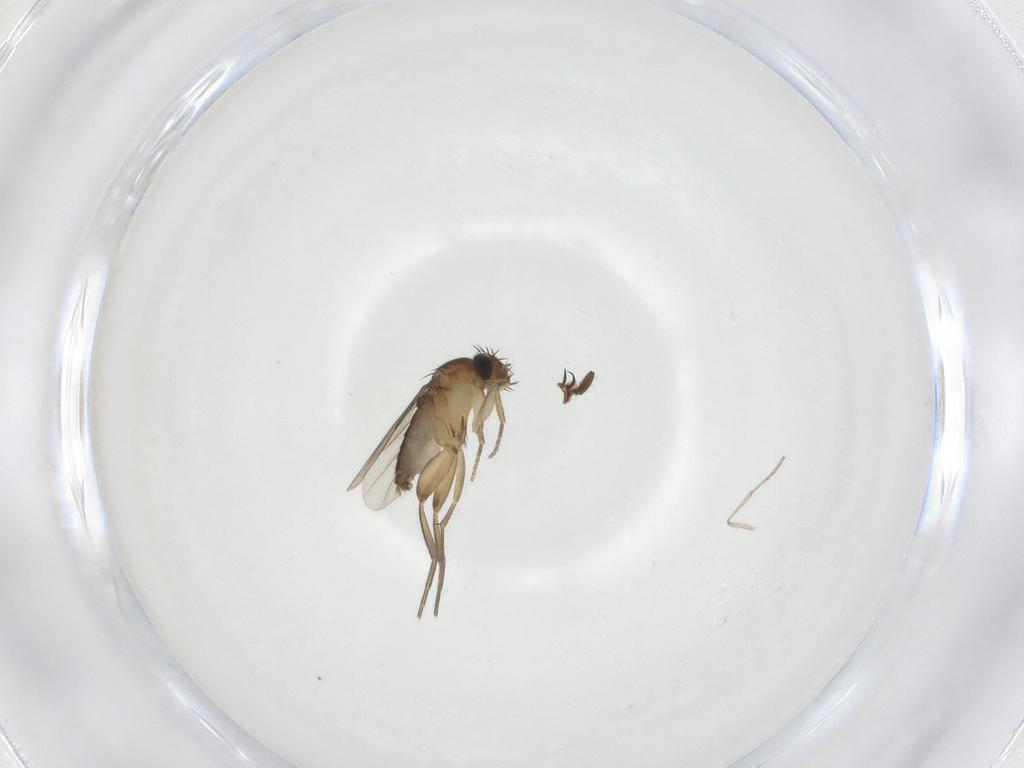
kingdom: Animalia
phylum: Arthropoda
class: Insecta
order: Diptera
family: Phoridae
